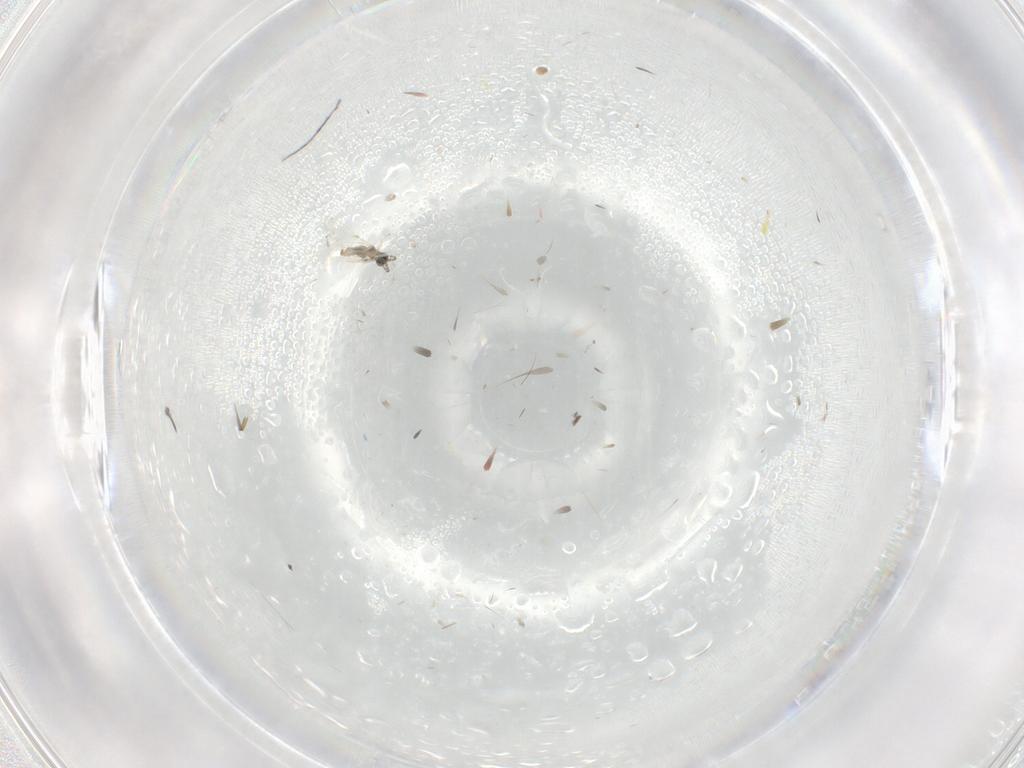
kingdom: Animalia
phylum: Arthropoda
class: Insecta
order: Diptera
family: Cecidomyiidae
